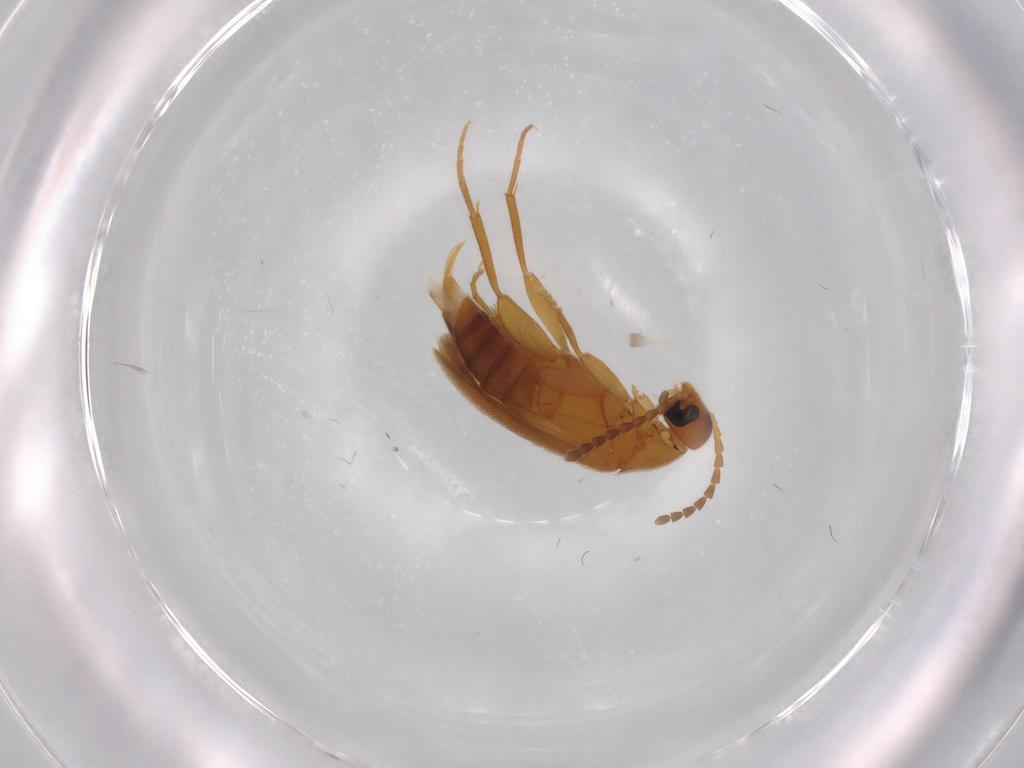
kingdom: Animalia
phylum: Arthropoda
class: Insecta
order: Coleoptera
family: Scraptiidae
